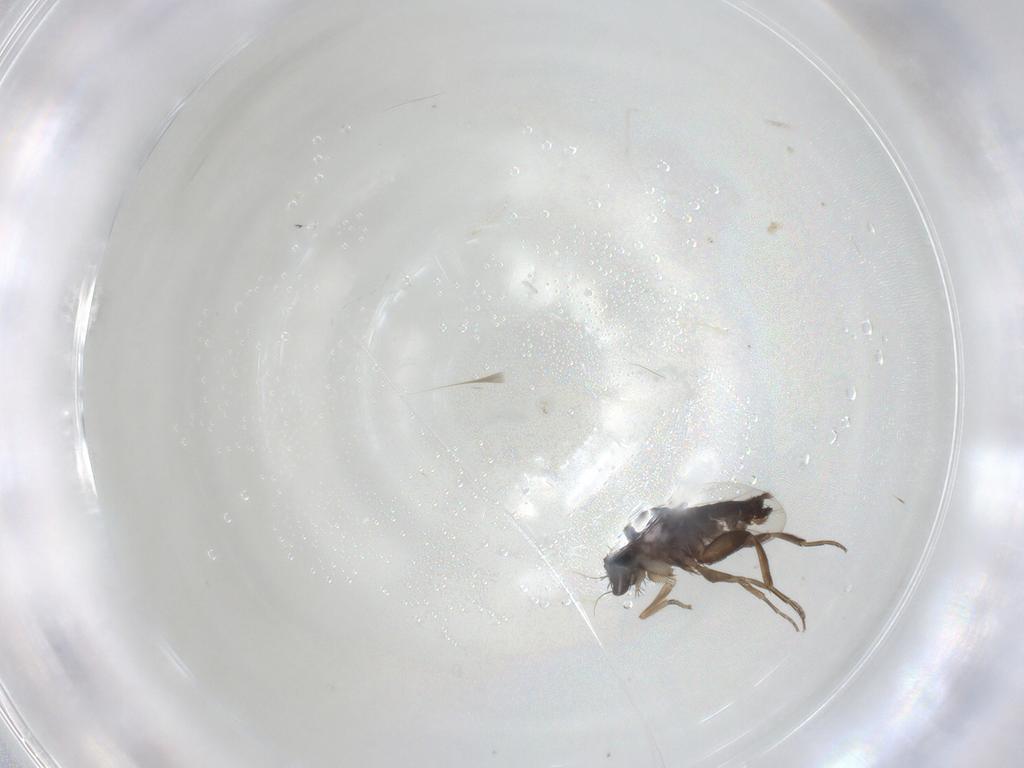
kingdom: Animalia
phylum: Arthropoda
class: Insecta
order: Diptera
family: Phoridae
